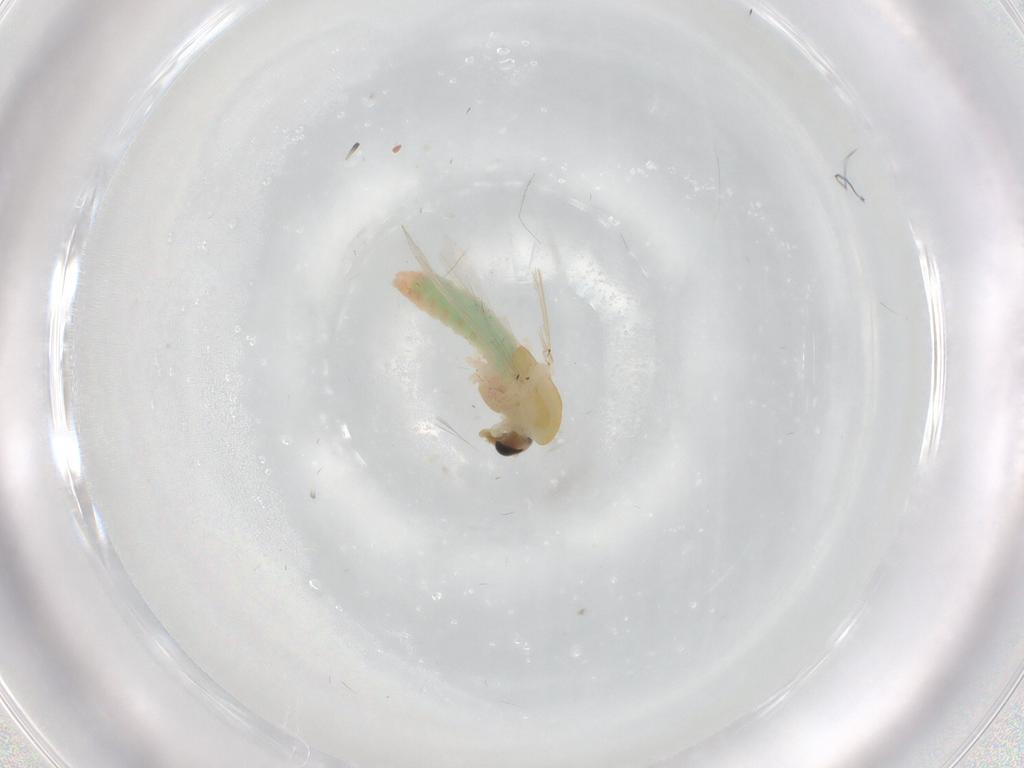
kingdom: Animalia
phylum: Arthropoda
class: Insecta
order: Diptera
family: Chironomidae
